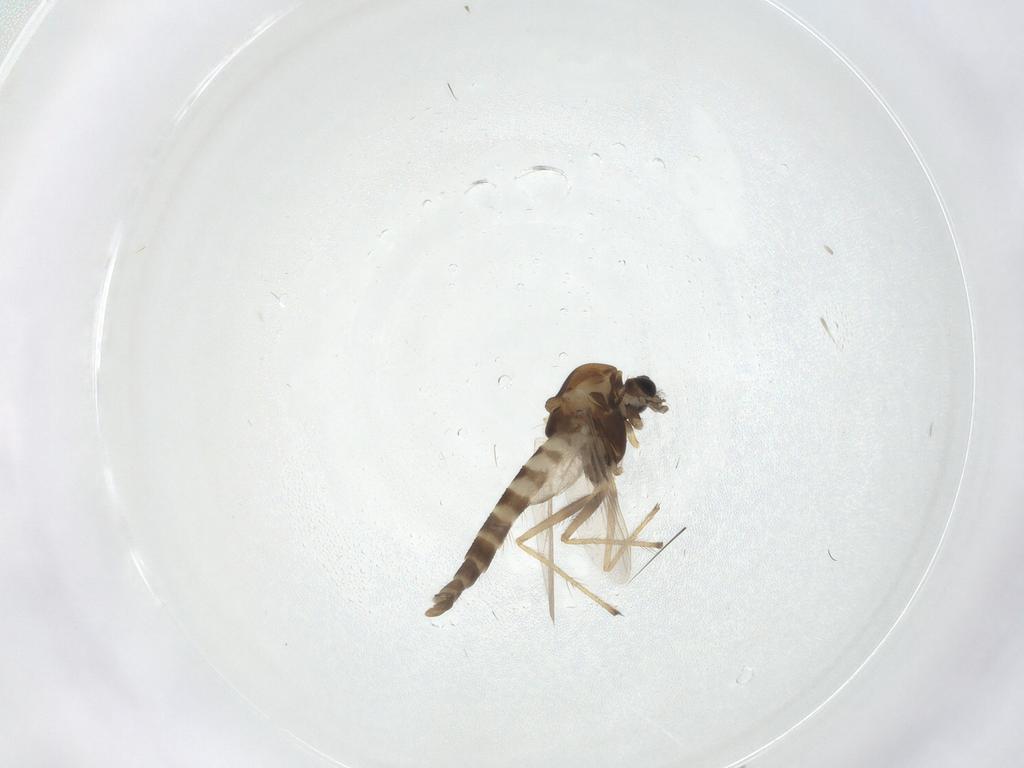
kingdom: Animalia
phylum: Arthropoda
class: Insecta
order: Diptera
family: Chironomidae
